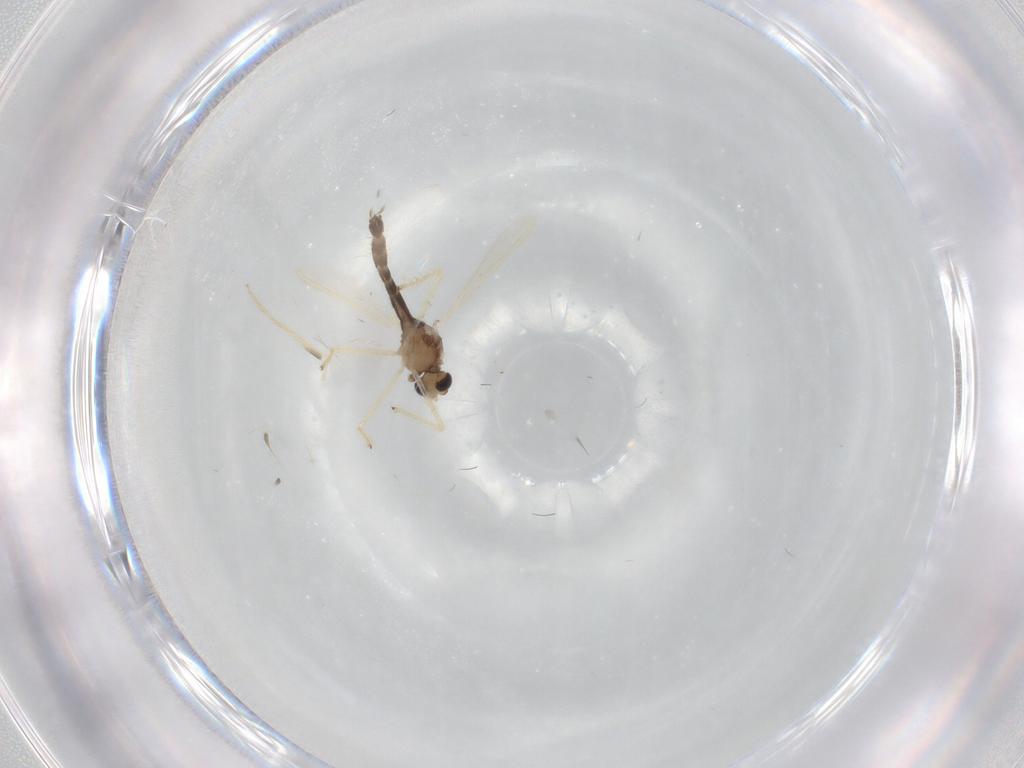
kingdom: Animalia
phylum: Arthropoda
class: Insecta
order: Diptera
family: Chironomidae
